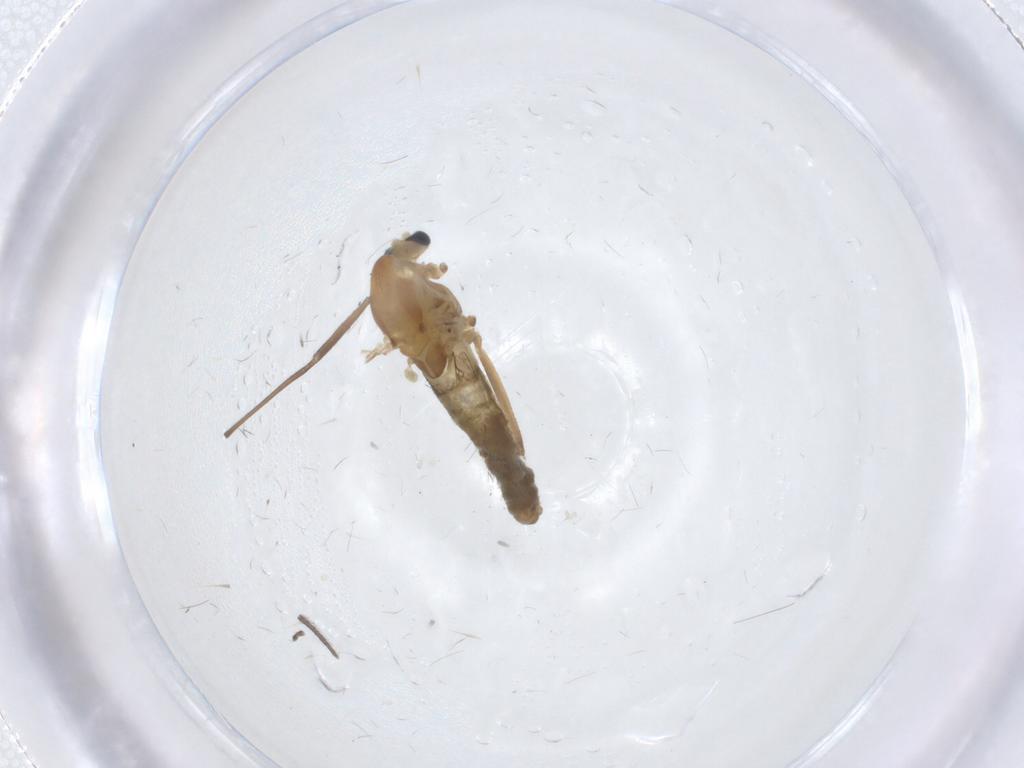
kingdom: Animalia
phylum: Arthropoda
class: Insecta
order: Diptera
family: Chironomidae
